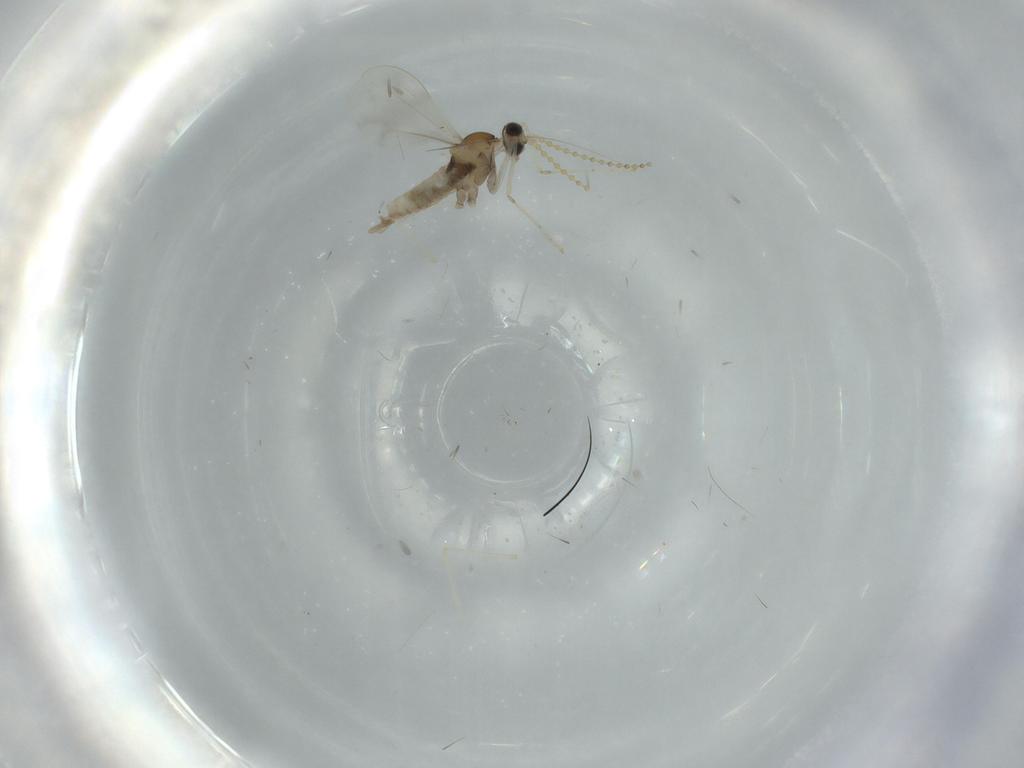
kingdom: Animalia
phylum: Arthropoda
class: Insecta
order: Diptera
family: Cecidomyiidae
